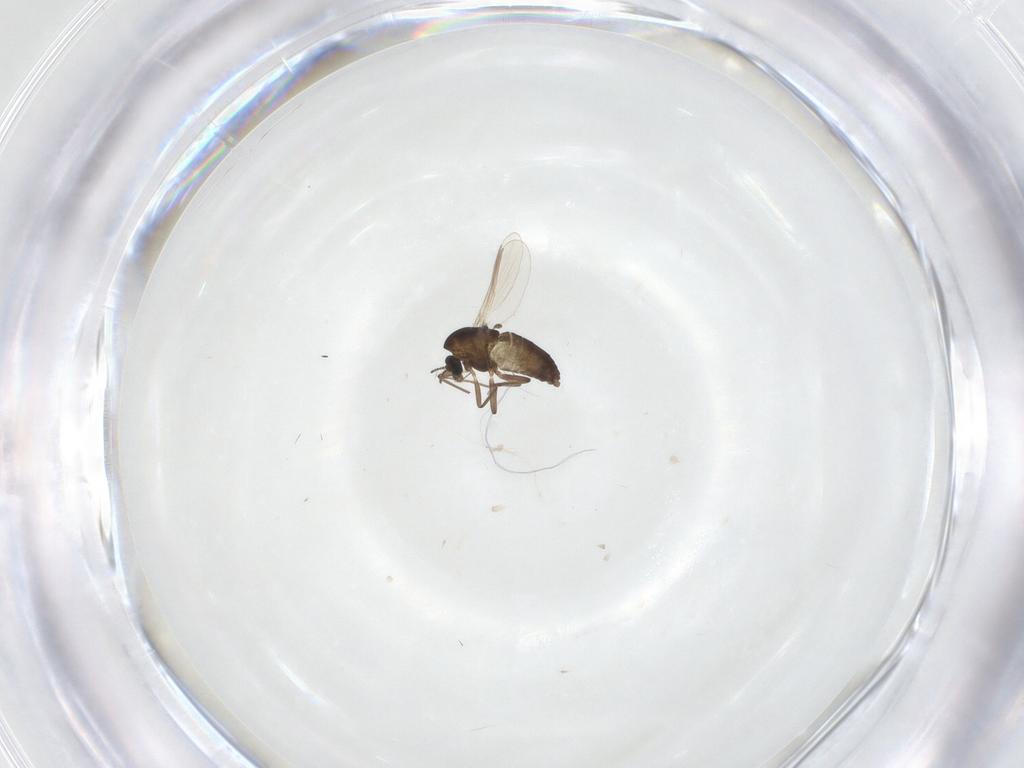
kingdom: Animalia
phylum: Arthropoda
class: Insecta
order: Diptera
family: Chironomidae
